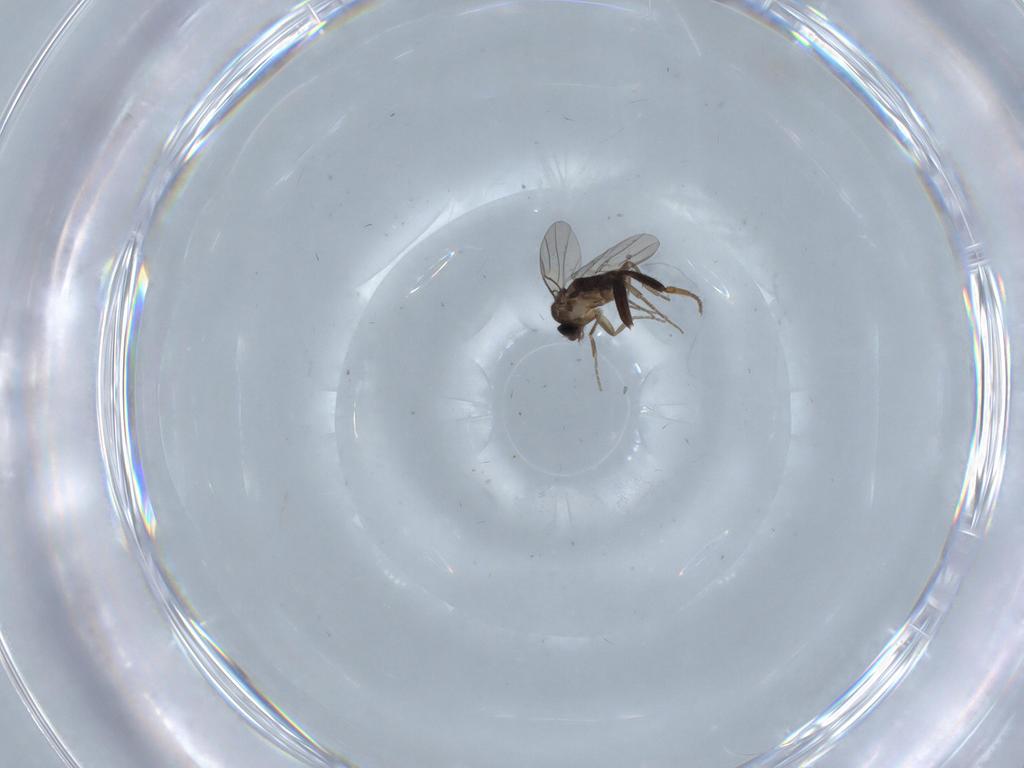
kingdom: Animalia
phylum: Arthropoda
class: Insecta
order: Diptera
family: Phoridae
